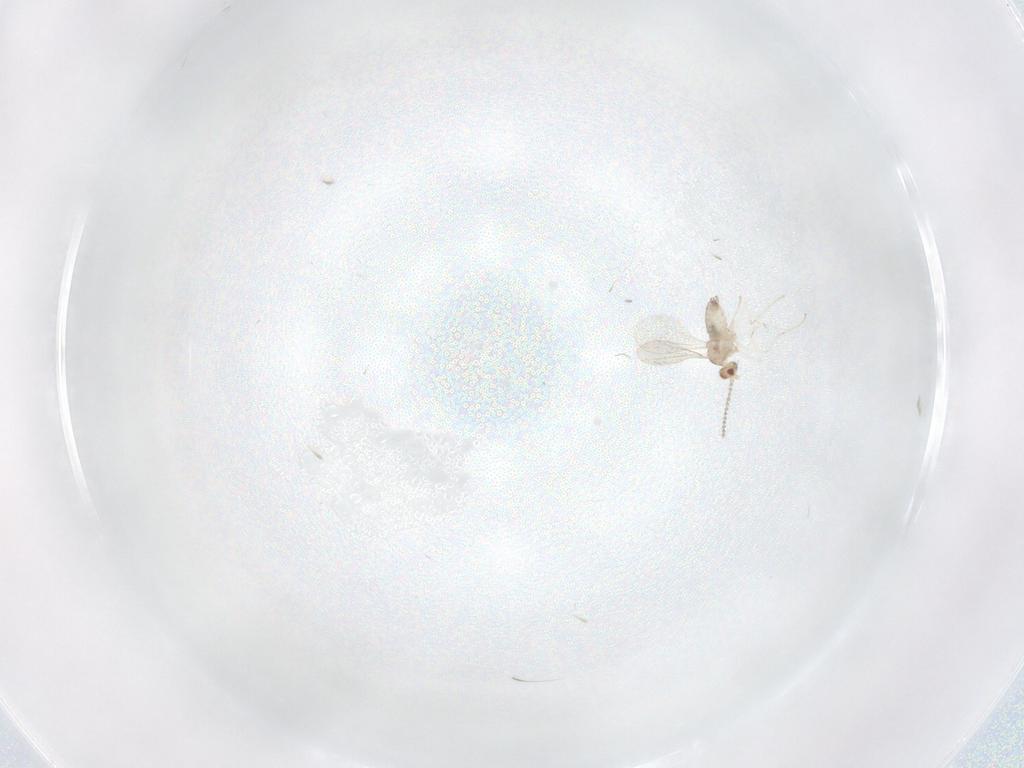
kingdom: Animalia
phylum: Arthropoda
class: Insecta
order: Diptera
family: Cecidomyiidae
